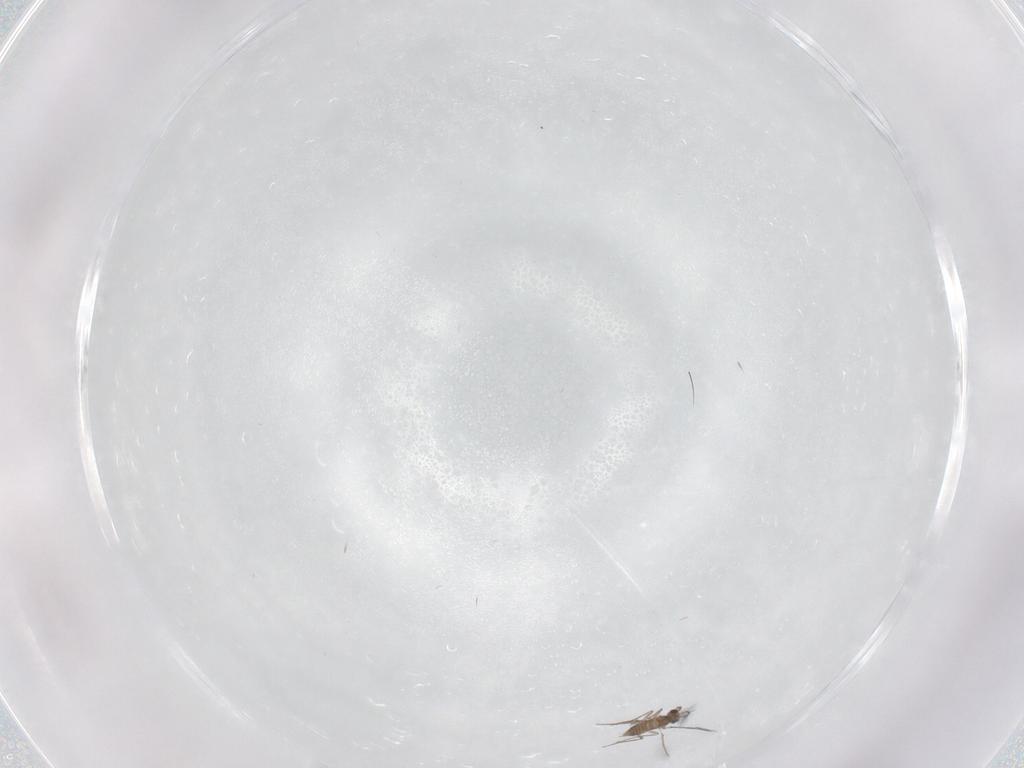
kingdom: Animalia
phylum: Arthropoda
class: Insecta
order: Hymenoptera
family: Mymaridae
